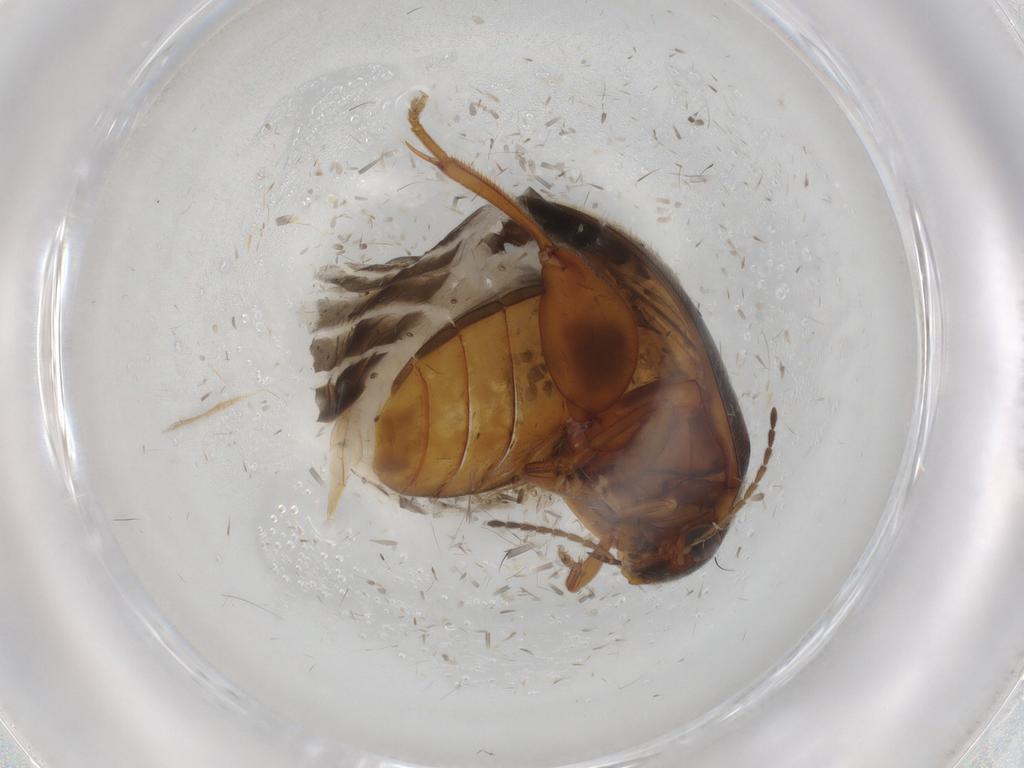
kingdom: Animalia
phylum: Arthropoda
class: Insecta
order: Coleoptera
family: Scirtidae
